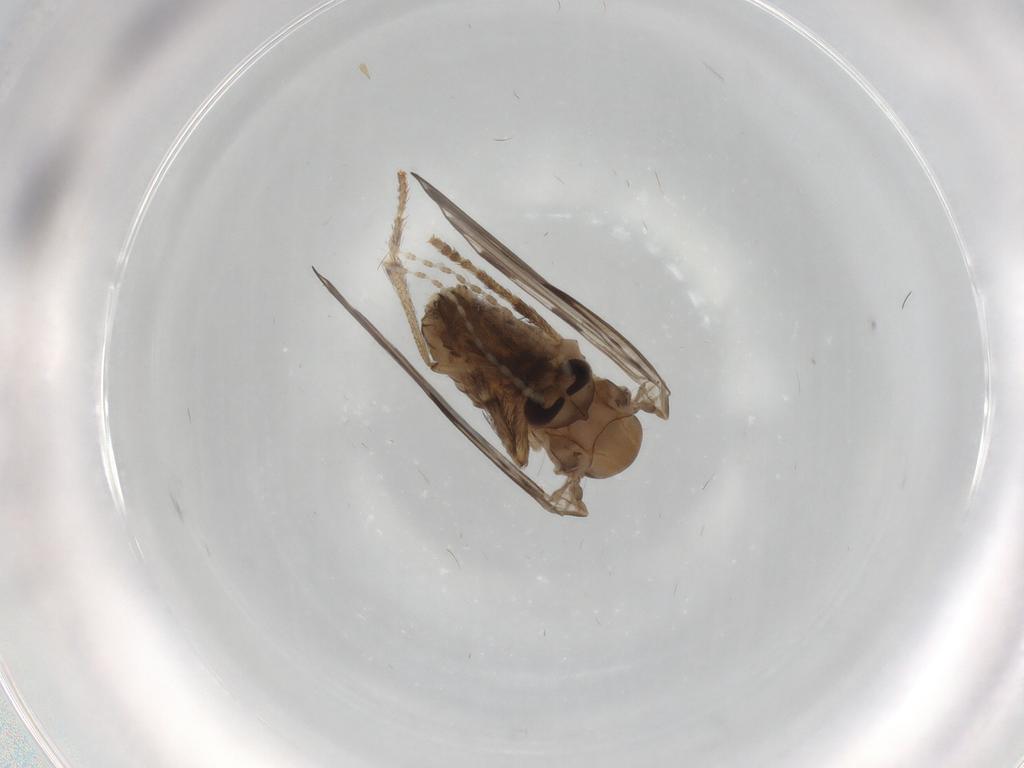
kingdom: Animalia
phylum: Arthropoda
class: Insecta
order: Diptera
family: Psychodidae
